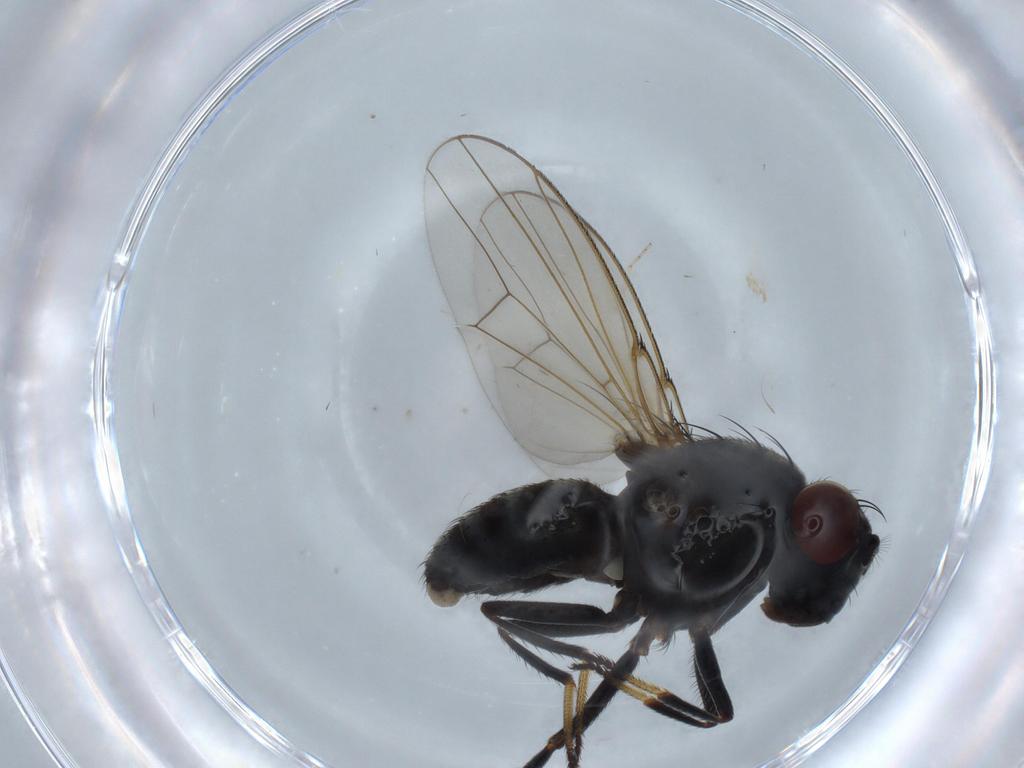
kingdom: Animalia
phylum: Arthropoda
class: Insecta
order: Diptera
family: Ephydridae
